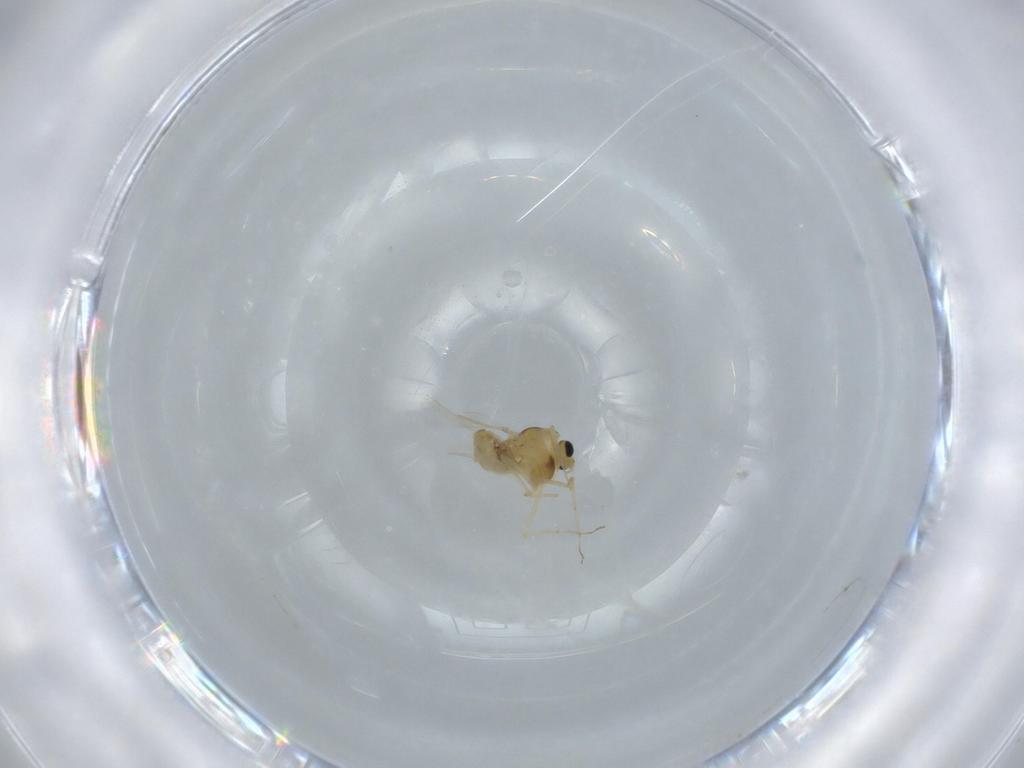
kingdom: Animalia
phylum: Arthropoda
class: Insecta
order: Diptera
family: Chironomidae
